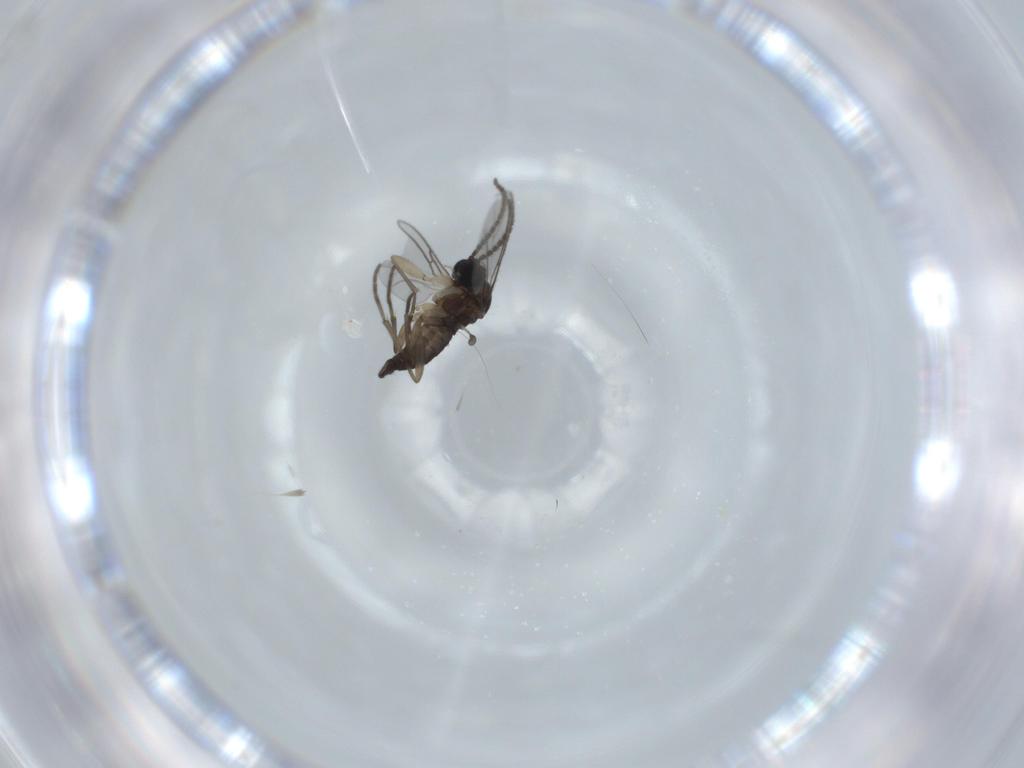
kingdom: Animalia
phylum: Arthropoda
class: Insecta
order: Diptera
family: Sciaridae
